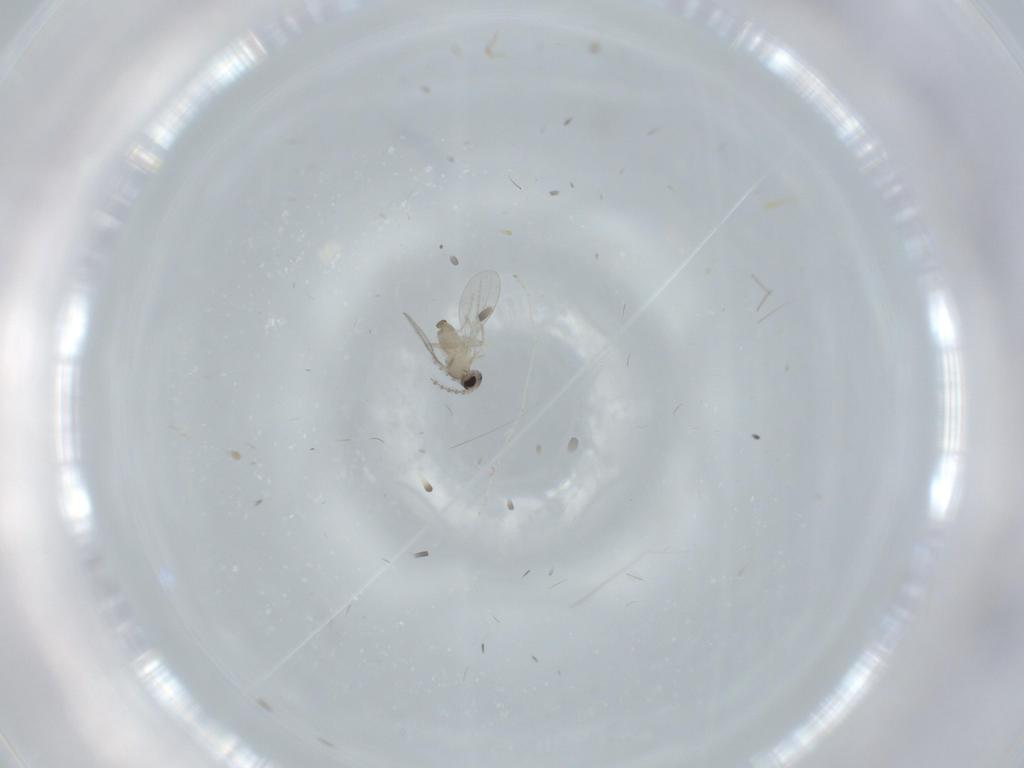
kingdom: Animalia
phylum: Arthropoda
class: Insecta
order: Diptera
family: Cecidomyiidae
